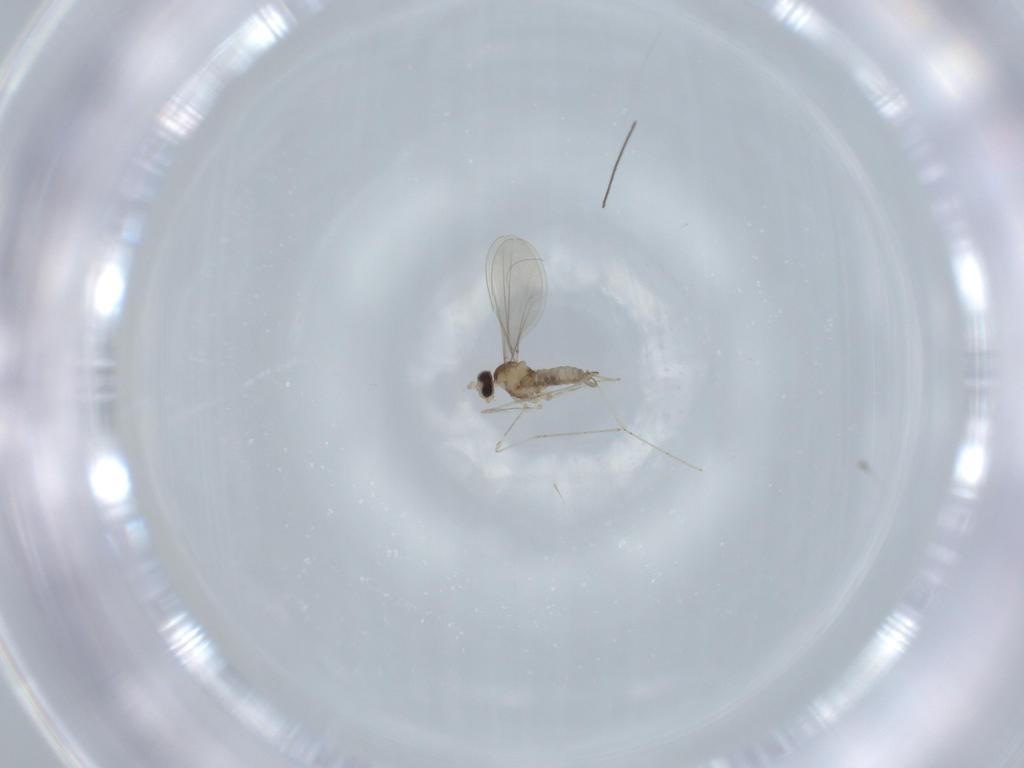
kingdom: Animalia
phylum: Arthropoda
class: Insecta
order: Diptera
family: Cecidomyiidae
